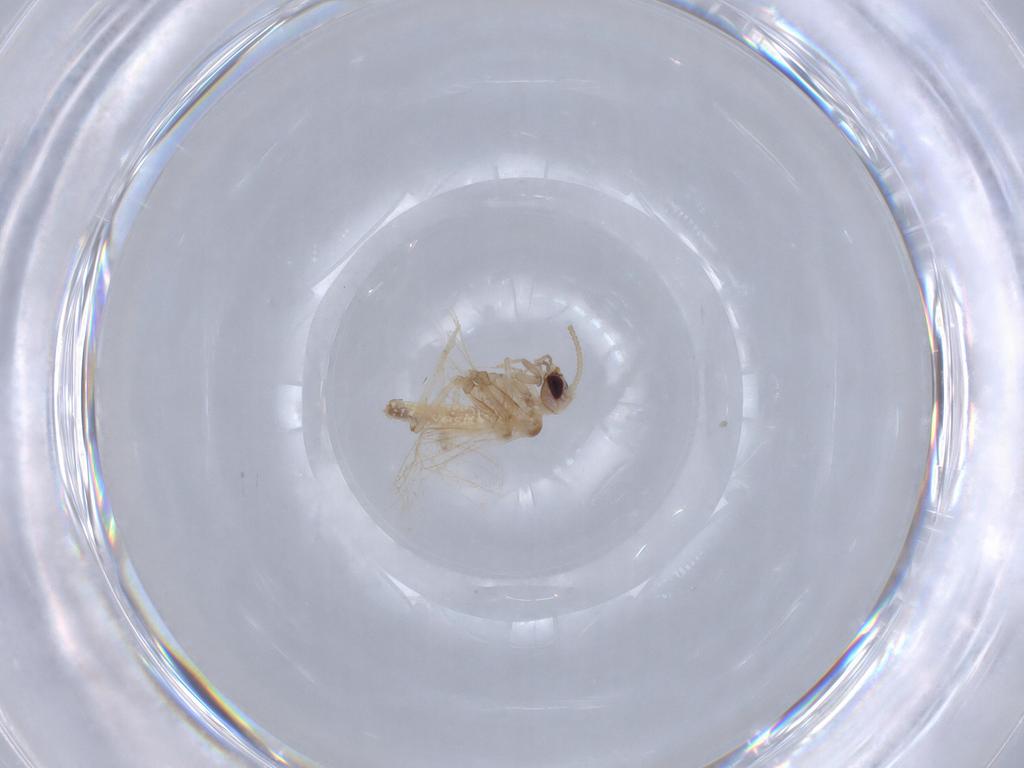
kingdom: Animalia
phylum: Arthropoda
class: Insecta
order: Neuroptera
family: Coniopterygidae
